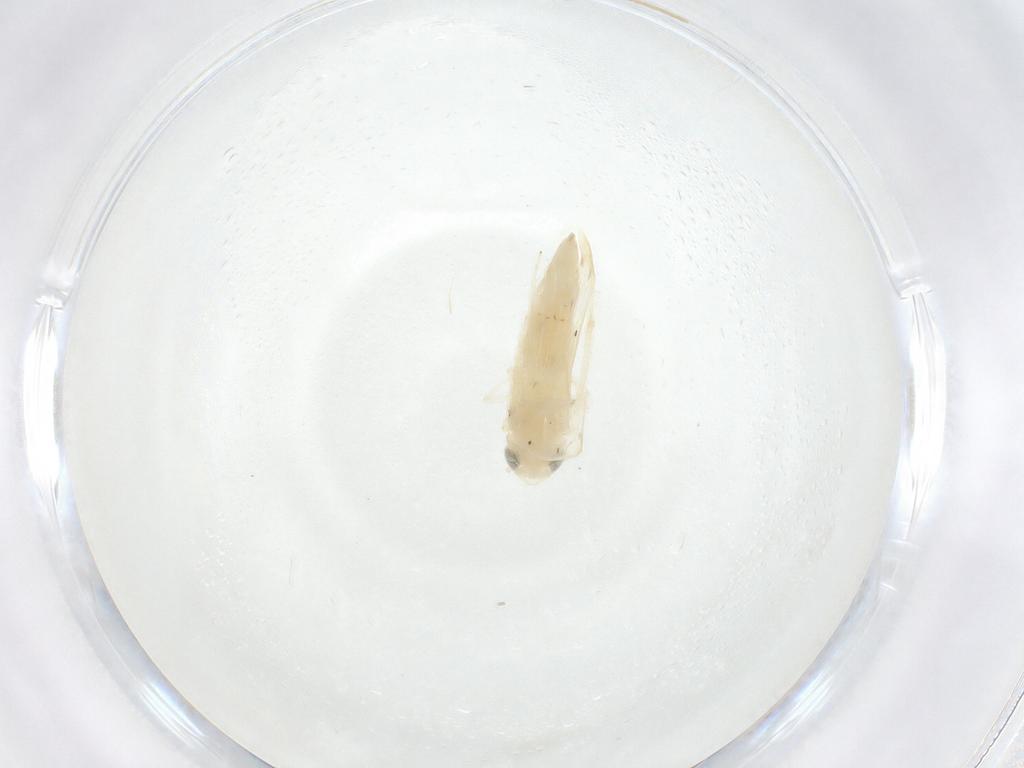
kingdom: Animalia
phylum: Arthropoda
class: Insecta
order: Hemiptera
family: Cicadellidae
